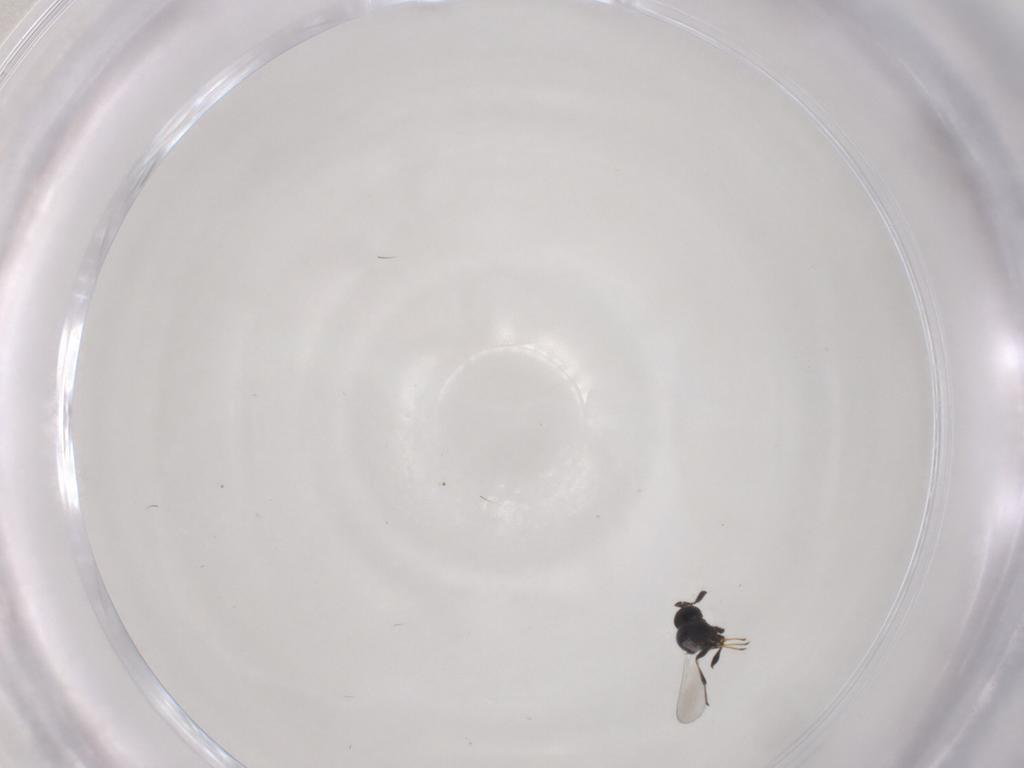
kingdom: Animalia
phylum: Arthropoda
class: Insecta
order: Hymenoptera
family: Platygastridae
